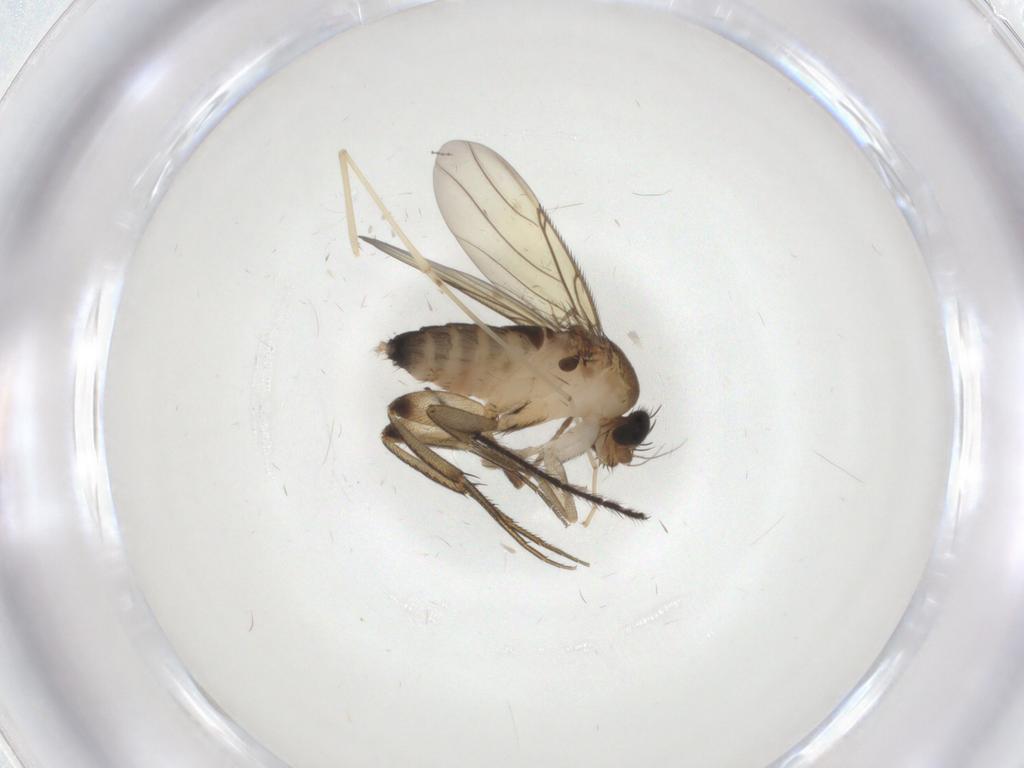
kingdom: Animalia
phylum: Arthropoda
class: Insecta
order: Diptera
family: Phoridae
